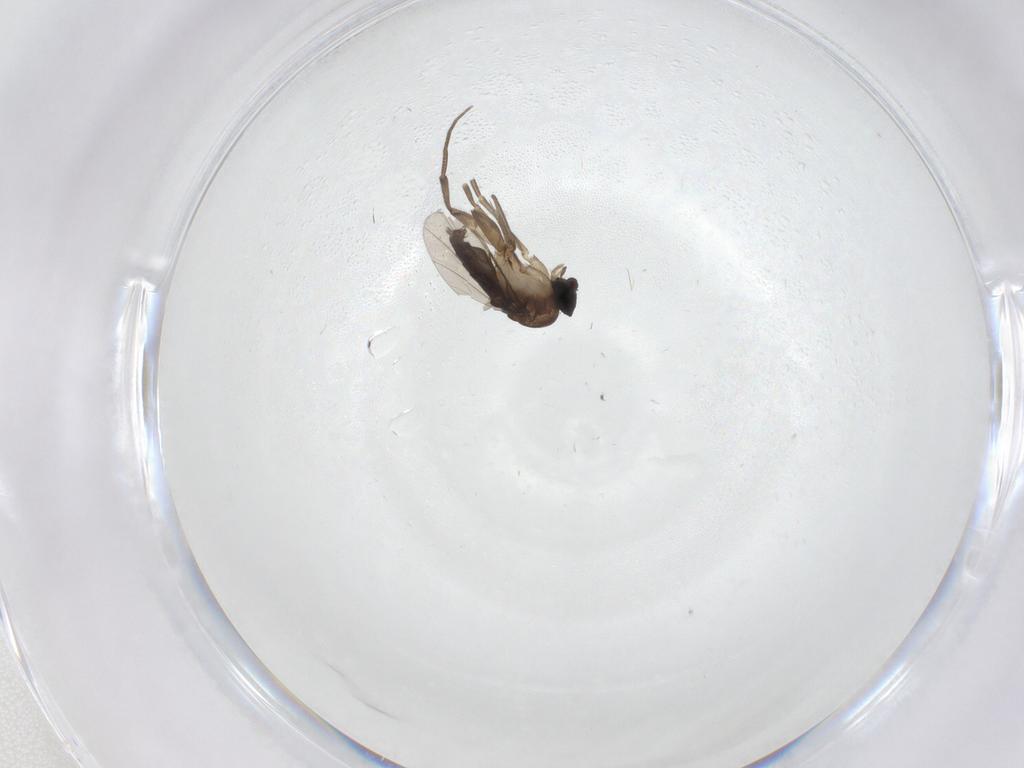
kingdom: Animalia
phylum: Arthropoda
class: Insecta
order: Diptera
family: Phoridae
